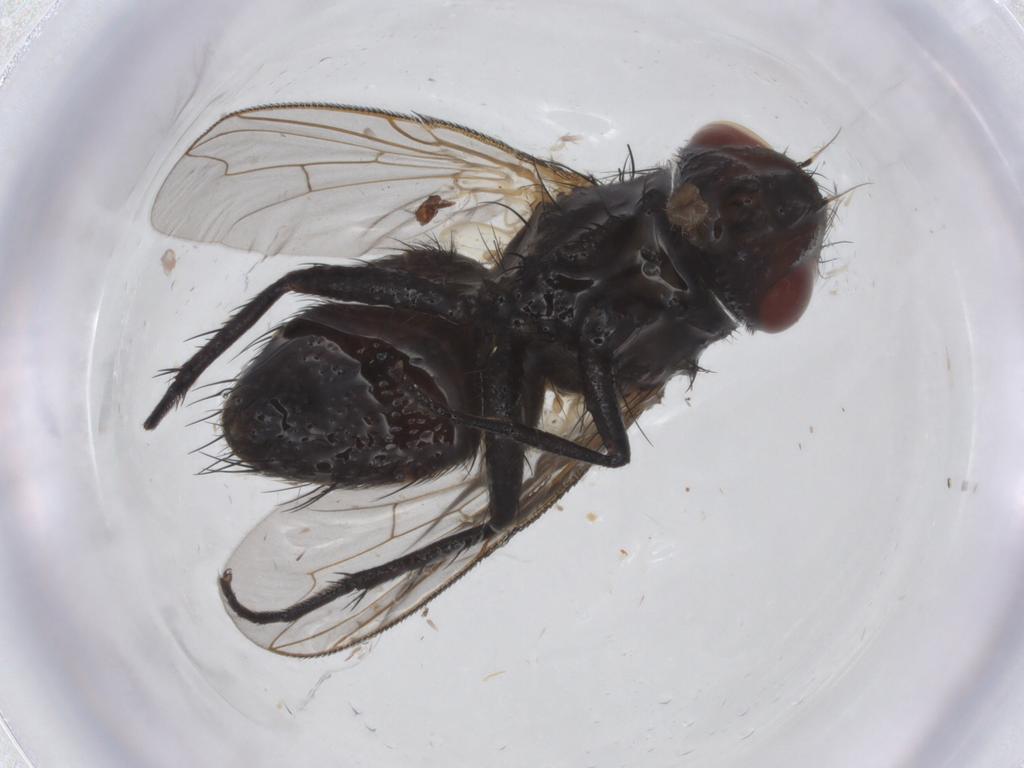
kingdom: Animalia
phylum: Arthropoda
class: Insecta
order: Diptera
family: Sarcophagidae
